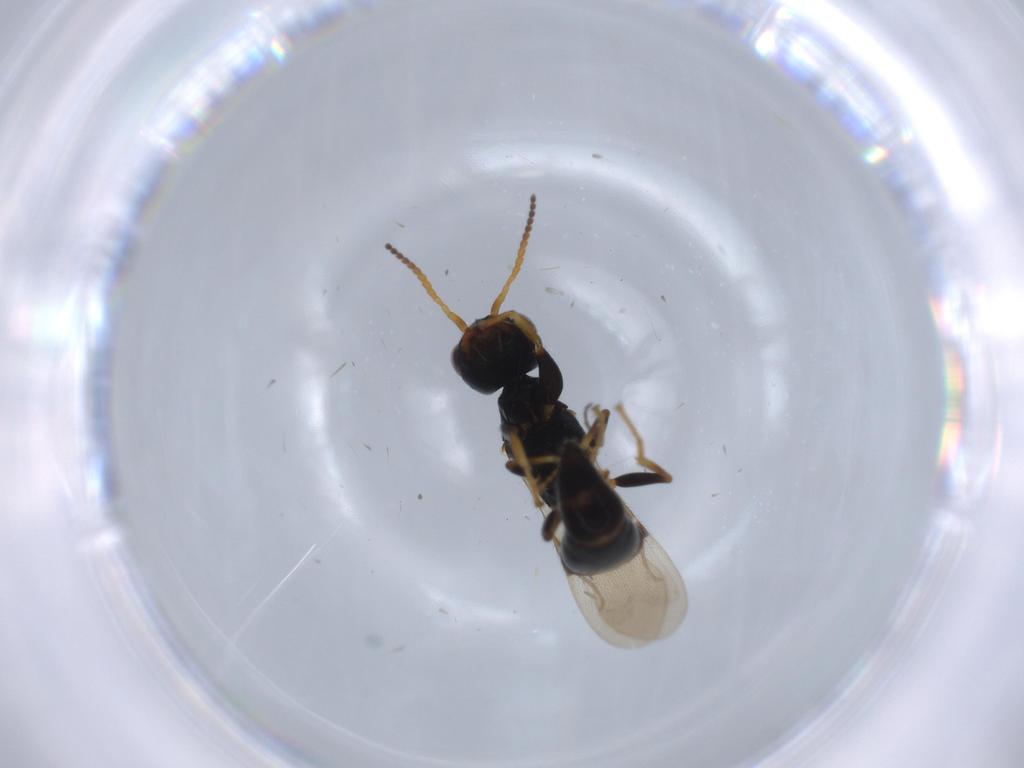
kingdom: Animalia
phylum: Arthropoda
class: Insecta
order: Hymenoptera
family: Bethylidae
